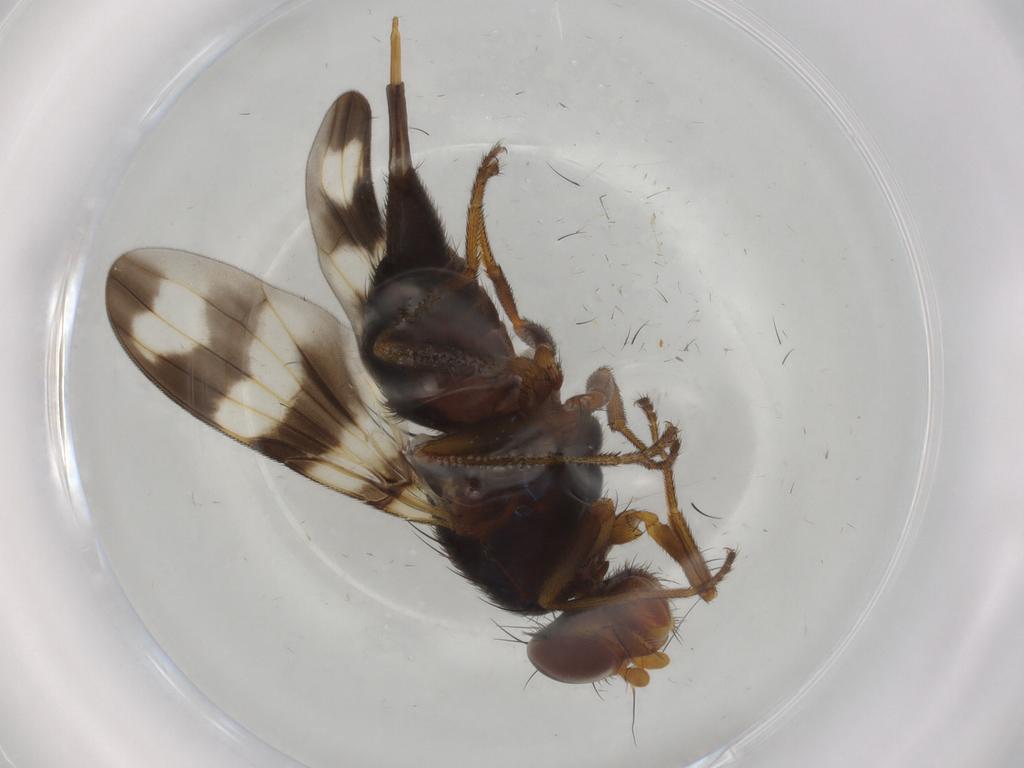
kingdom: Animalia
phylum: Arthropoda
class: Insecta
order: Diptera
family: Ulidiidae
